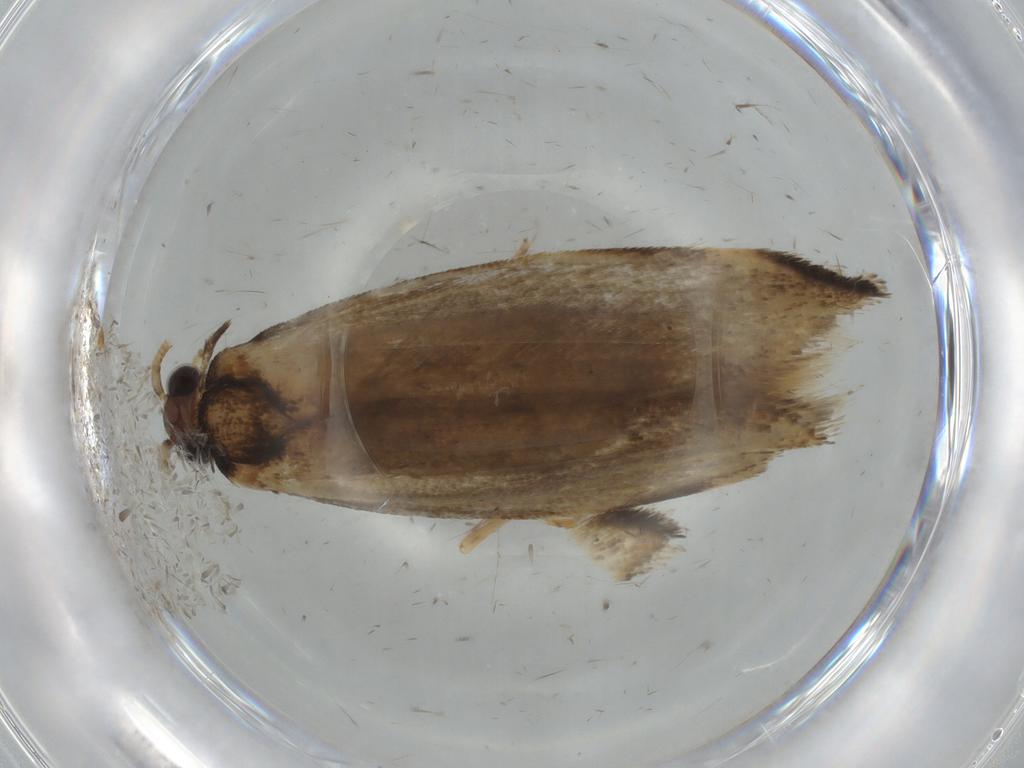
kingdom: Animalia
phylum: Arthropoda
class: Insecta
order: Lepidoptera
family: Tineidae
